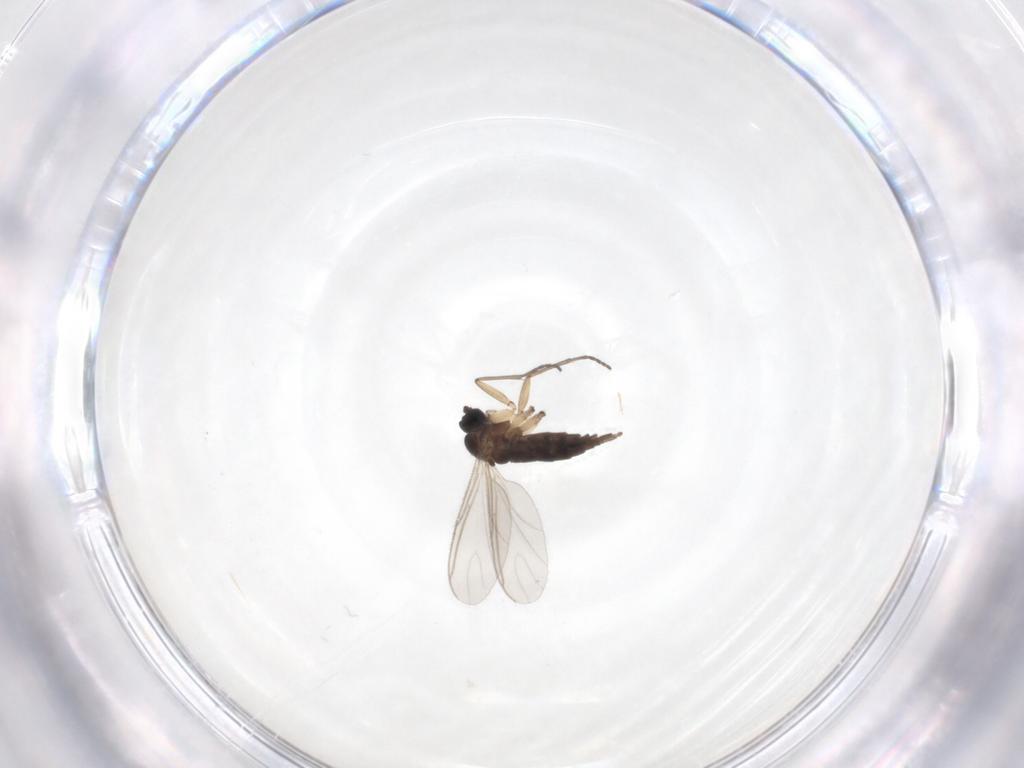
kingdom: Animalia
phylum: Arthropoda
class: Insecta
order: Diptera
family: Sciaridae
